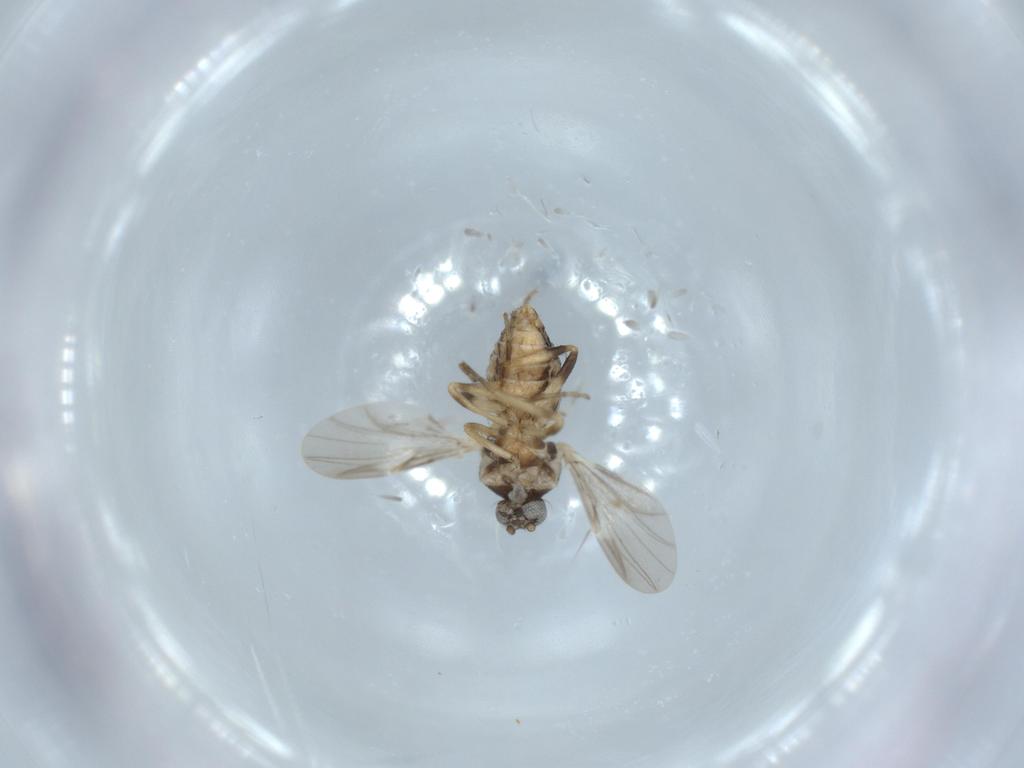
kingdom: Animalia
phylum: Arthropoda
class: Insecta
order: Diptera
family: Ceratopogonidae
